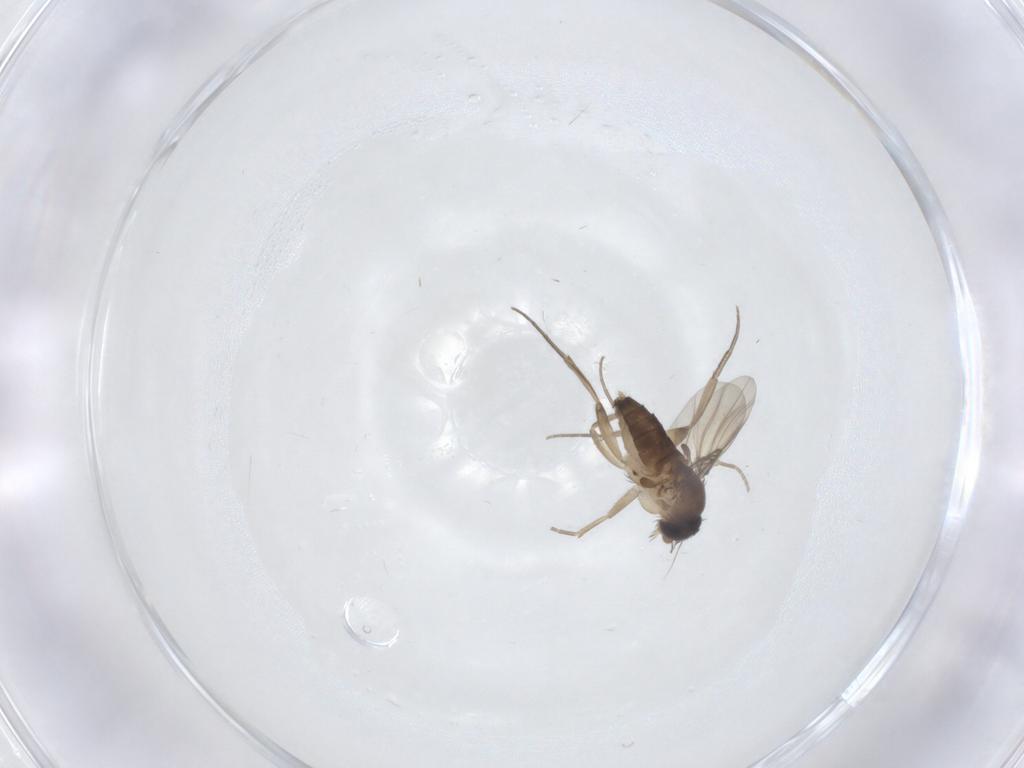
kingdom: Animalia
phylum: Arthropoda
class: Insecta
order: Diptera
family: Phoridae
